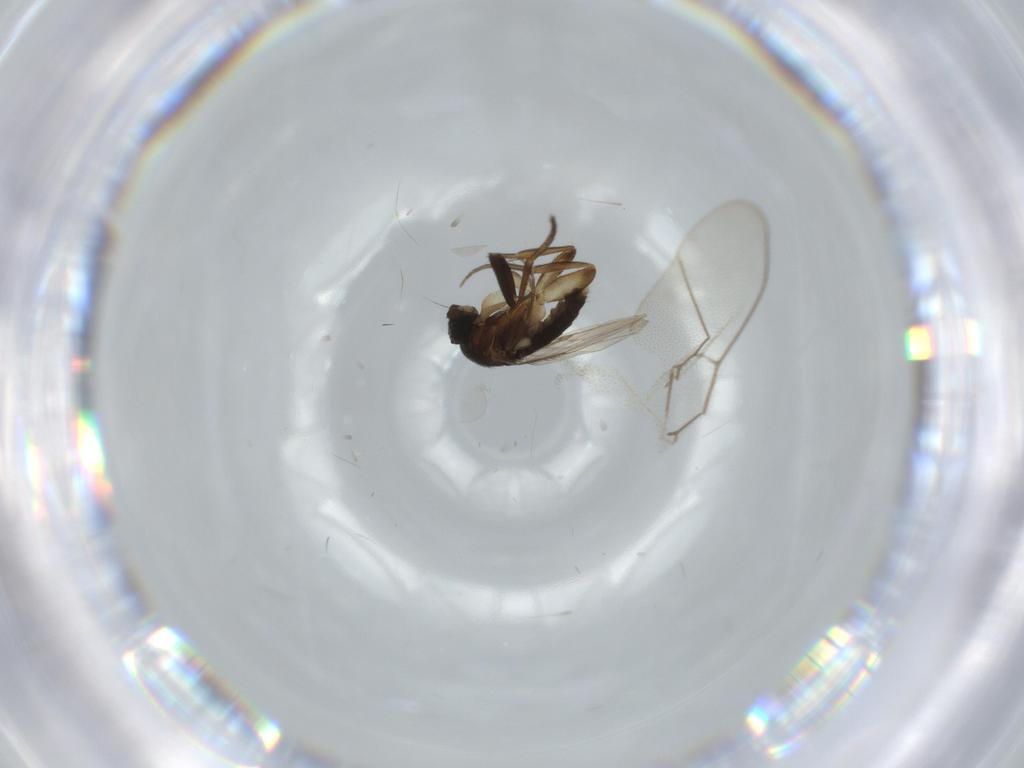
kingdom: Animalia
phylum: Arthropoda
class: Insecta
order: Diptera
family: Phoridae
